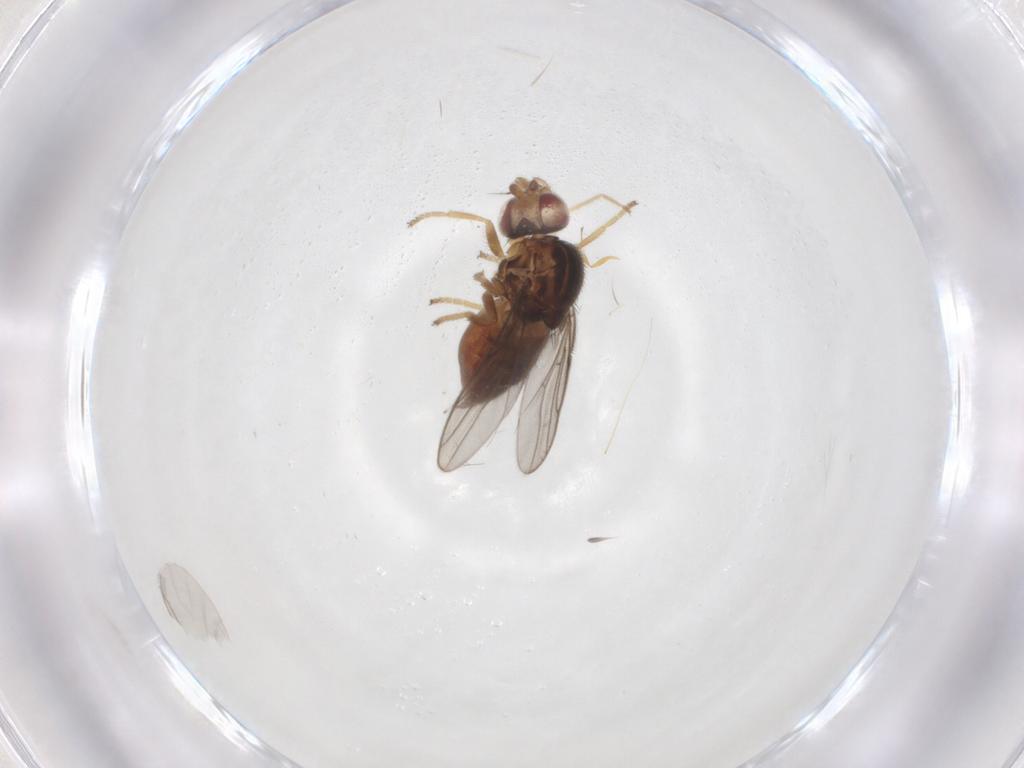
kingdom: Animalia
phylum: Arthropoda
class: Insecta
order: Diptera
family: Chloropidae
